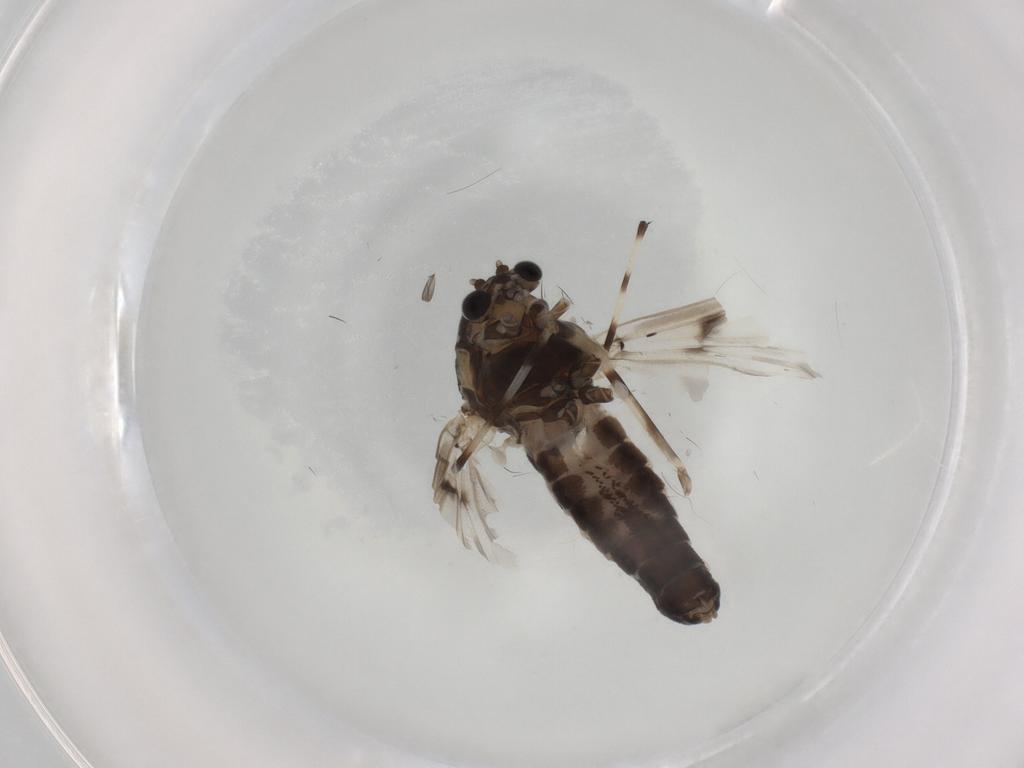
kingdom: Animalia
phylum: Arthropoda
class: Insecta
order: Diptera
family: Chironomidae
